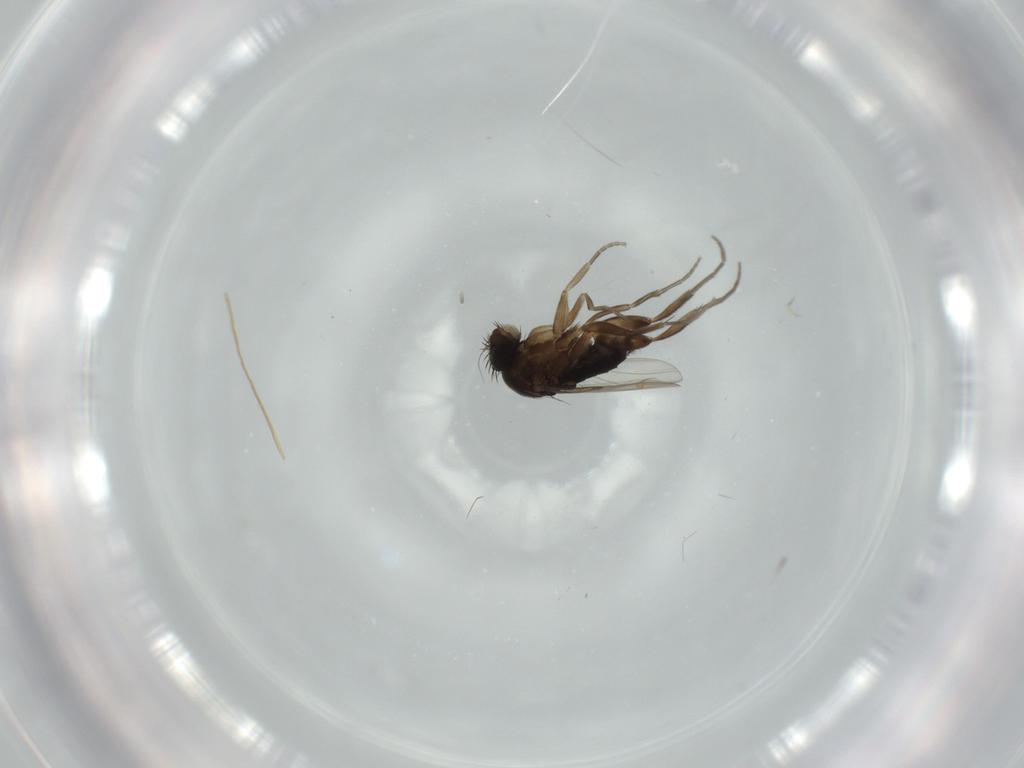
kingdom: Animalia
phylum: Arthropoda
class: Insecta
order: Diptera
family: Phoridae
